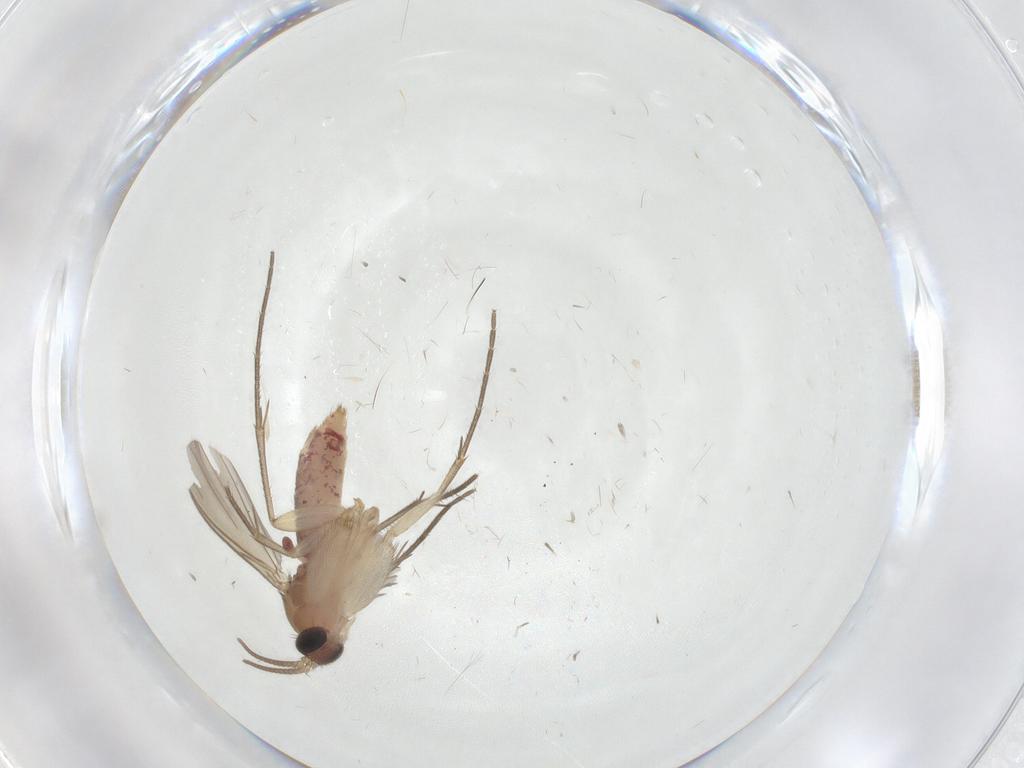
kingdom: Animalia
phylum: Arthropoda
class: Insecta
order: Diptera
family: Mycetophilidae
